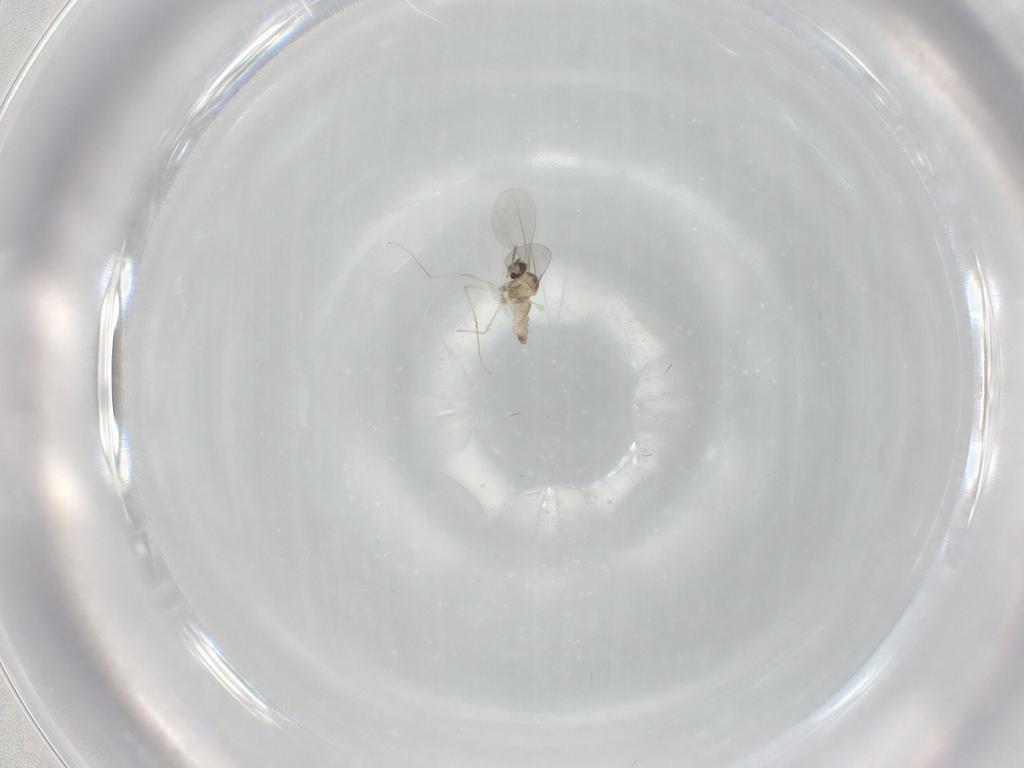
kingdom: Animalia
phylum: Arthropoda
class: Insecta
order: Diptera
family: Cecidomyiidae
